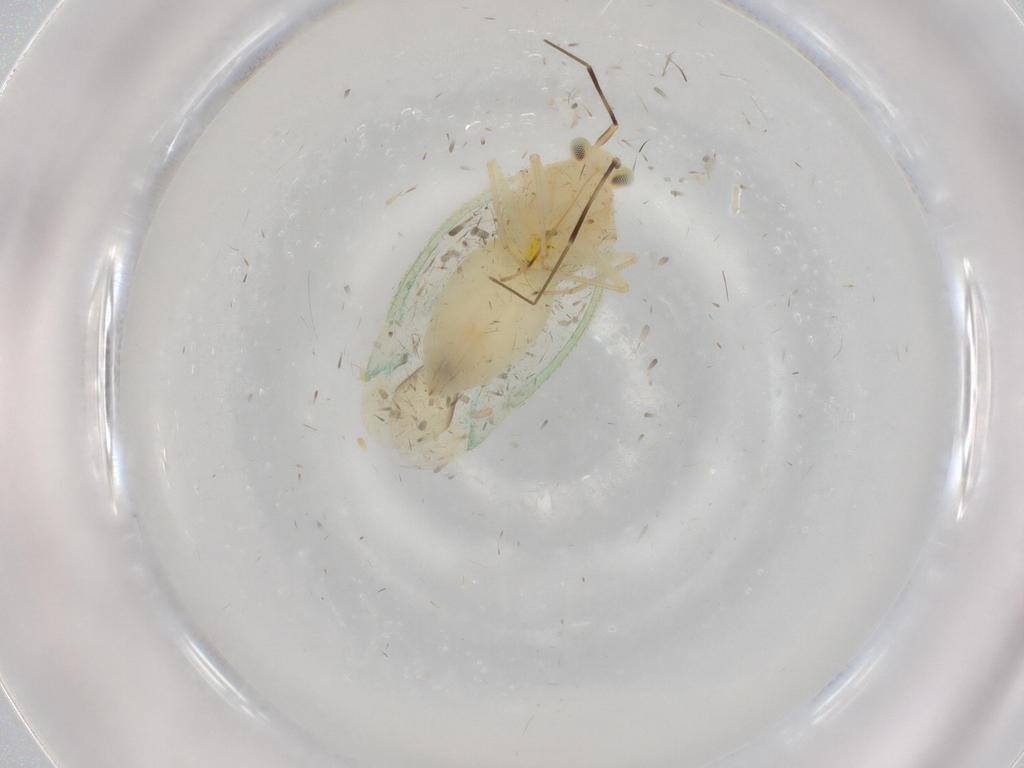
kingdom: Animalia
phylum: Arthropoda
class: Insecta
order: Hemiptera
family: Miridae
